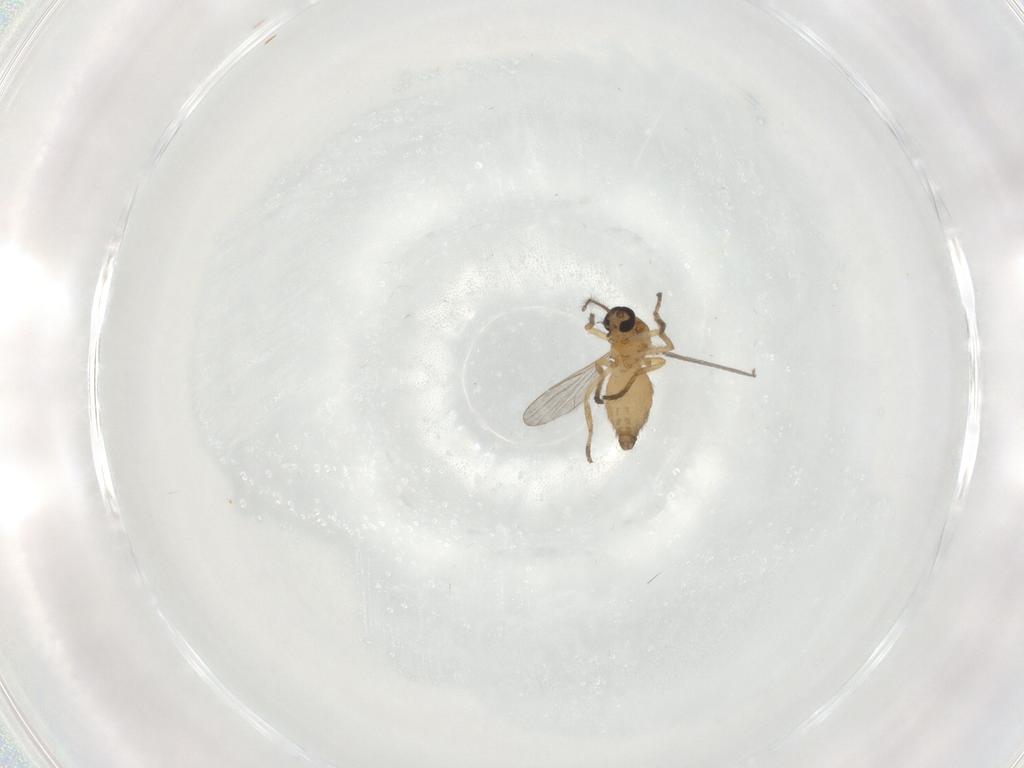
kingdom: Animalia
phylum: Arthropoda
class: Insecta
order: Diptera
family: Ceratopogonidae
